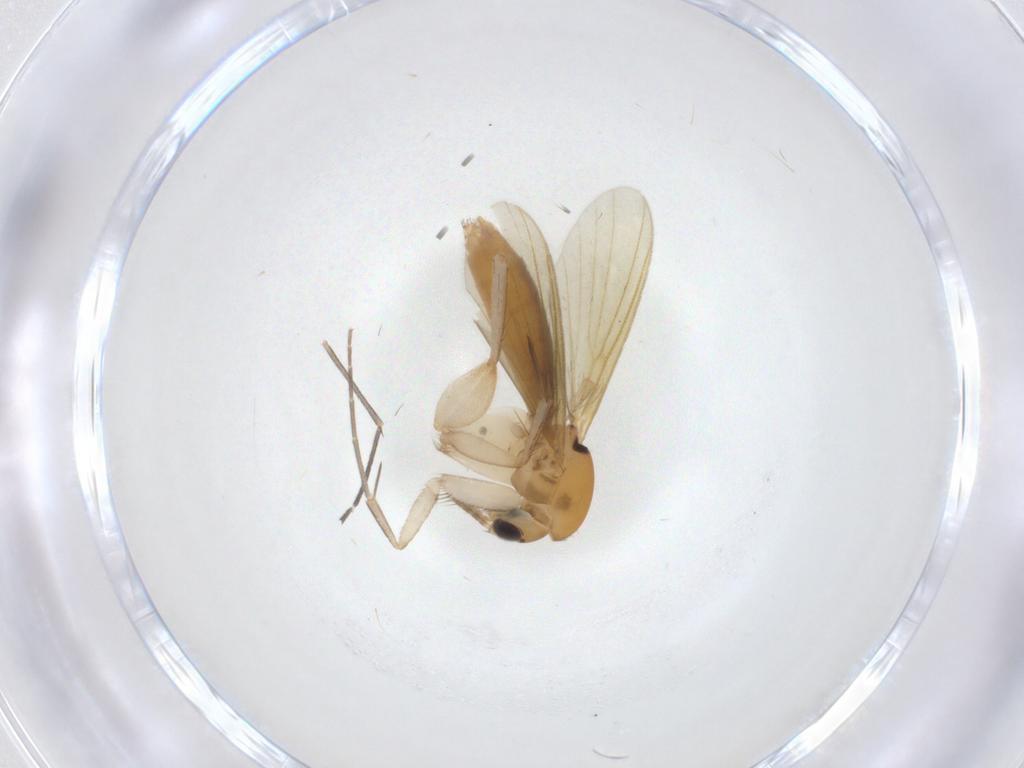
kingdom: Animalia
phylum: Arthropoda
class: Insecta
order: Diptera
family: Mycetophilidae
